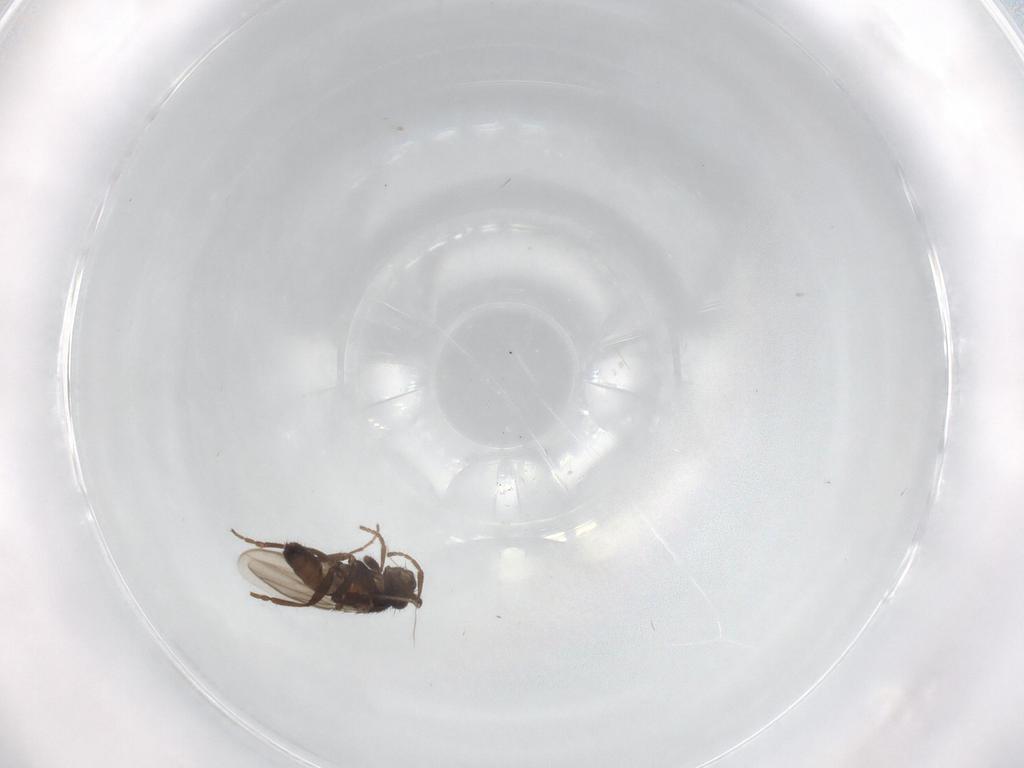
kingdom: Animalia
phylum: Arthropoda
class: Insecta
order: Diptera
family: Sphaeroceridae
